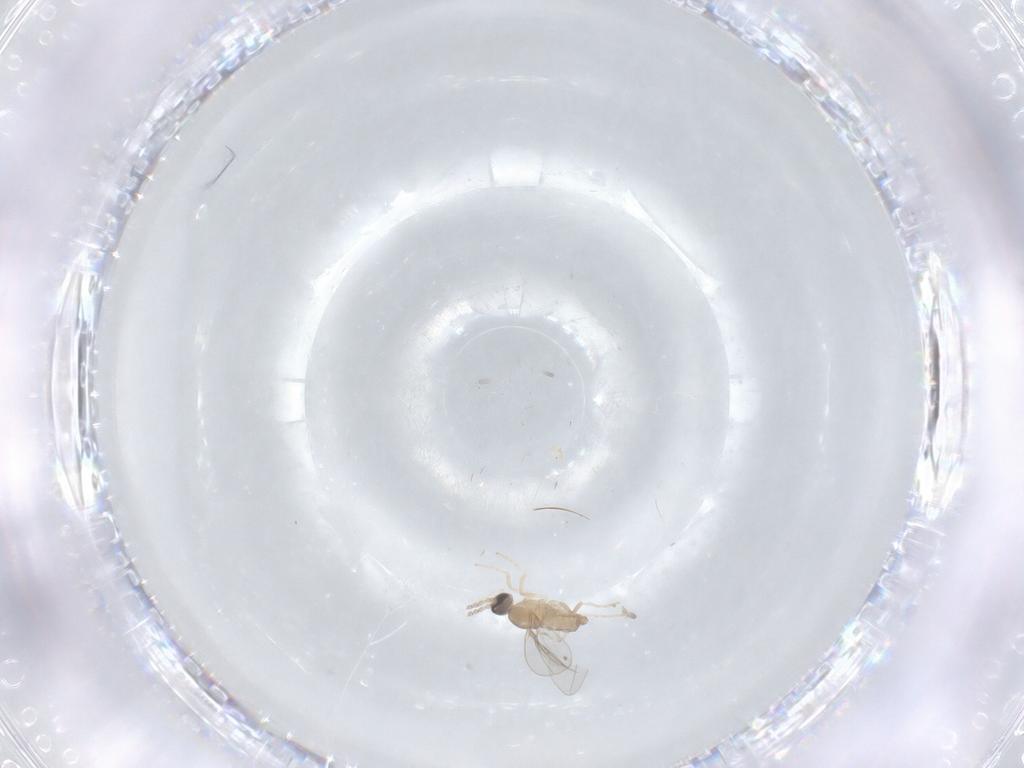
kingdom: Animalia
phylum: Arthropoda
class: Insecta
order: Diptera
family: Cecidomyiidae
